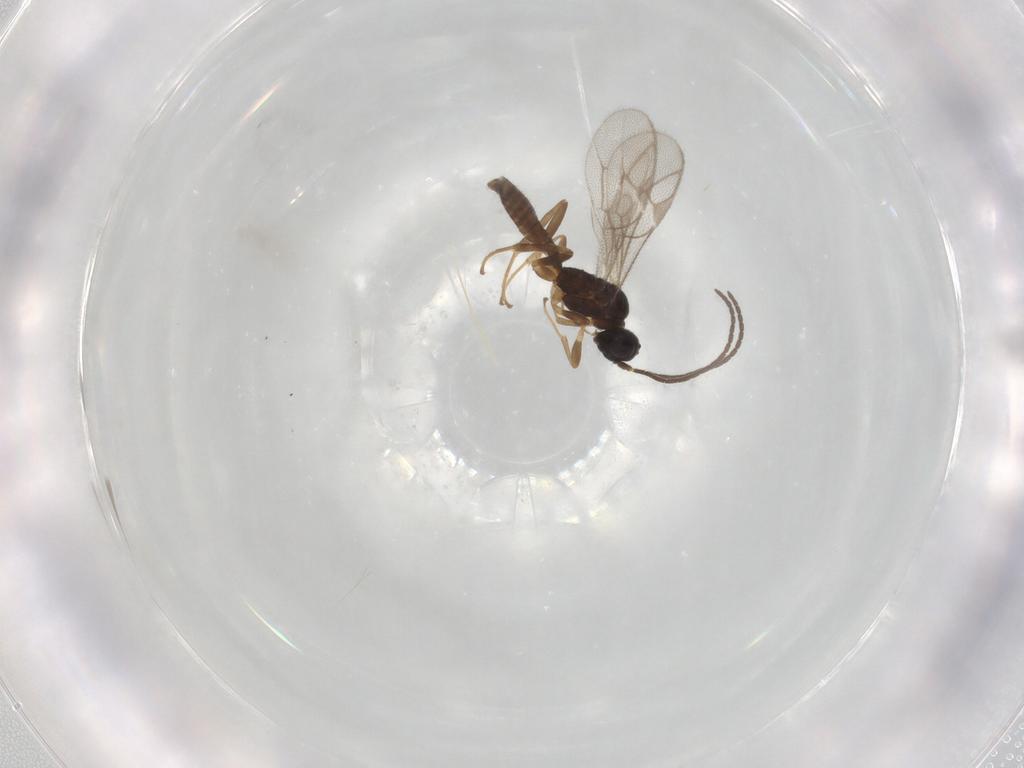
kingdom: Animalia
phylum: Arthropoda
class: Insecta
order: Hymenoptera
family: Ichneumonidae
